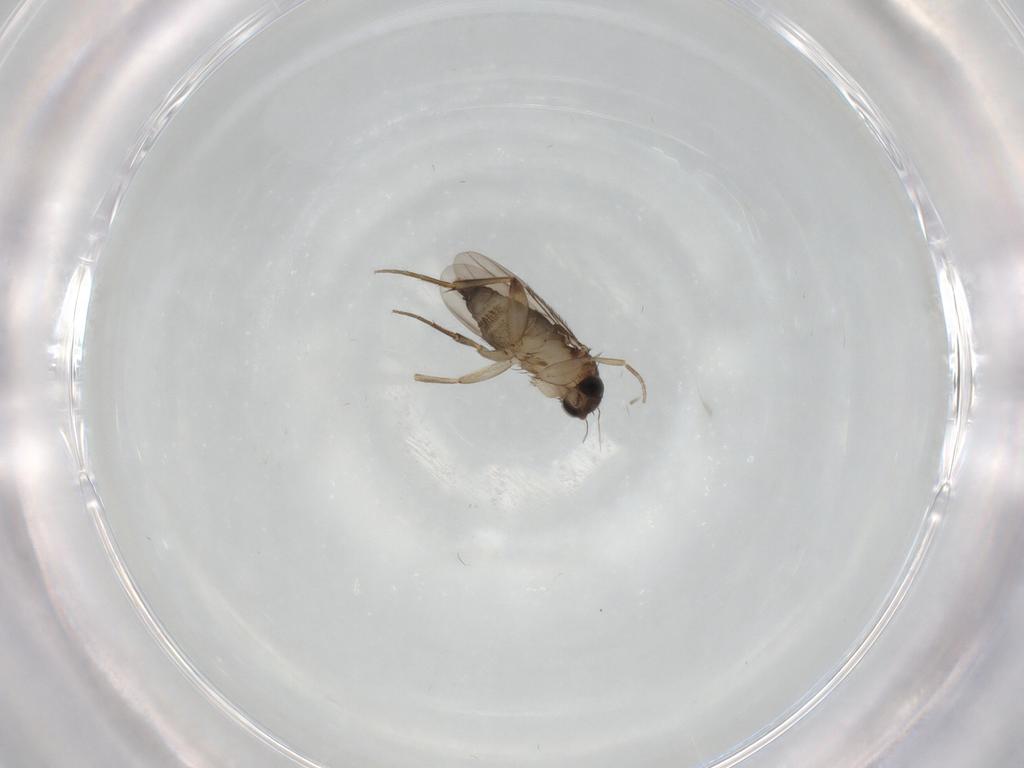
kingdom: Animalia
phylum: Arthropoda
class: Insecta
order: Diptera
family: Phoridae
